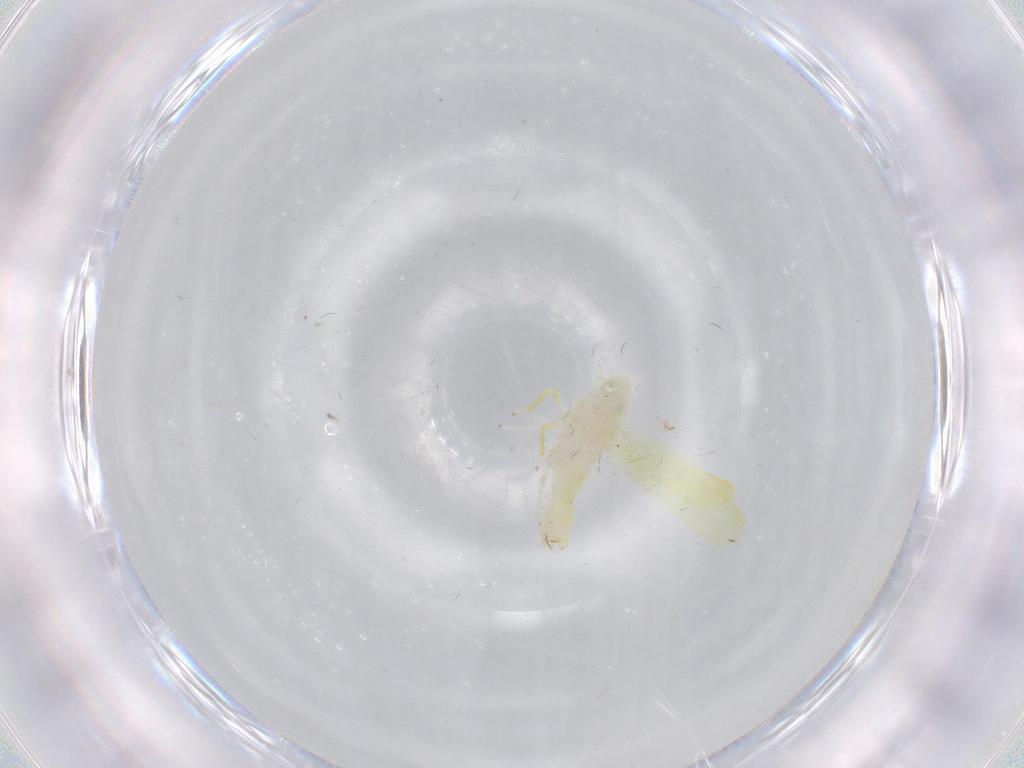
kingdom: Animalia
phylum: Arthropoda
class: Insecta
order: Hemiptera
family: Cicadellidae
